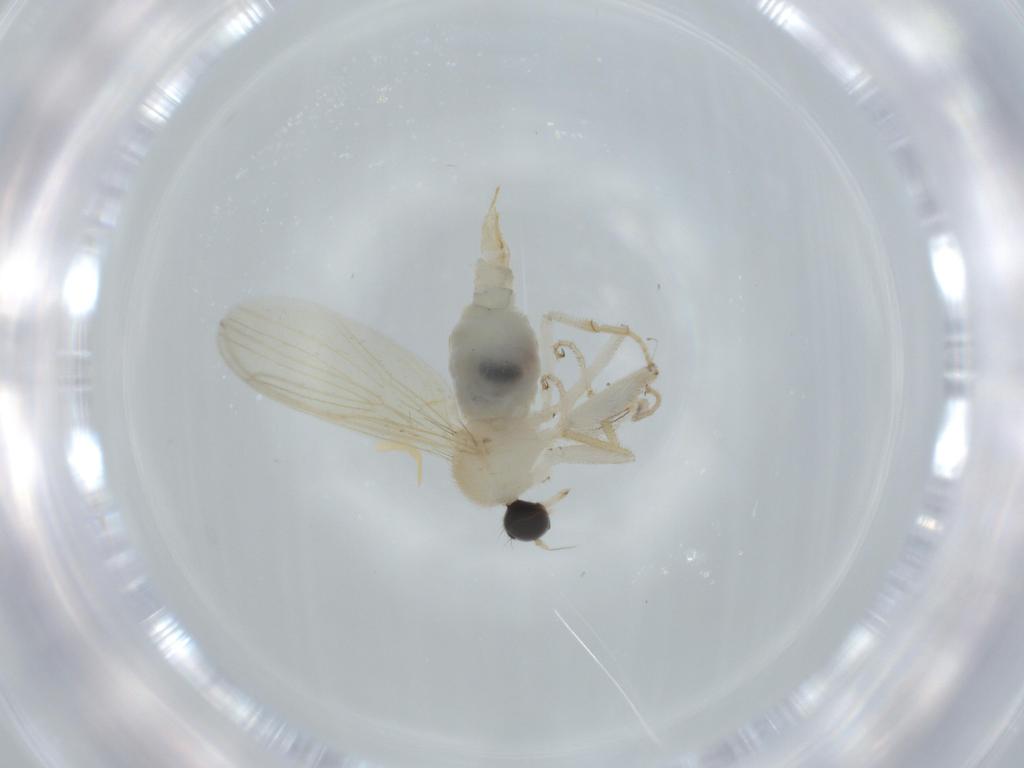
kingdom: Animalia
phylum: Arthropoda
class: Insecta
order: Diptera
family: Hybotidae
